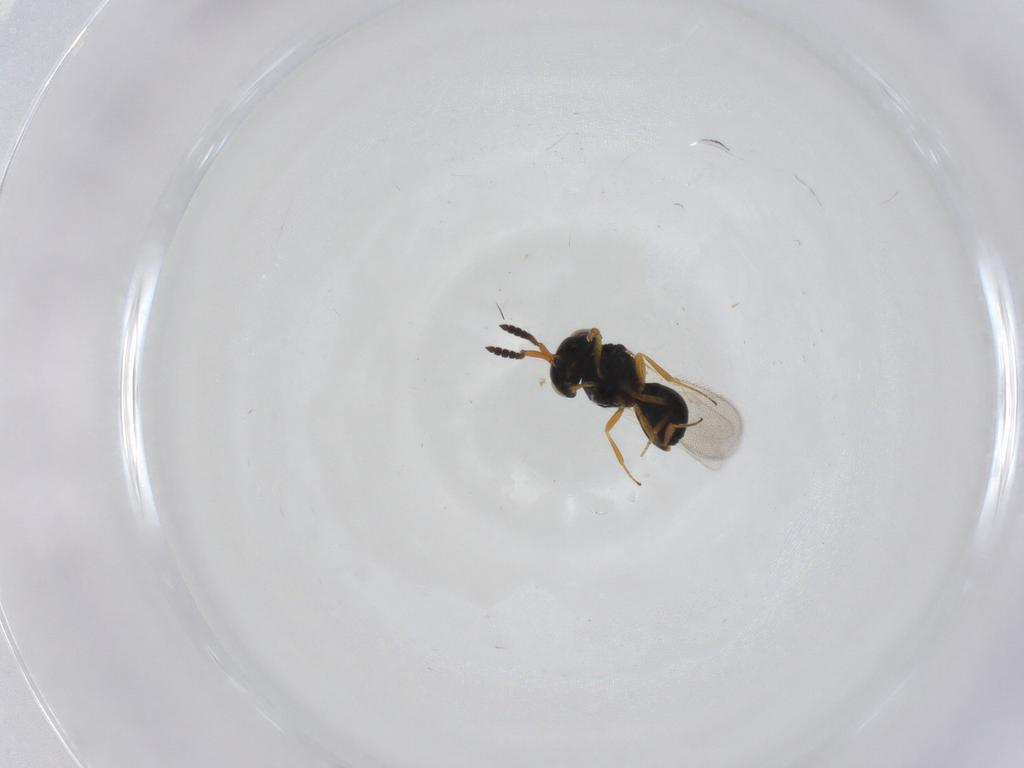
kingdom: Animalia
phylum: Arthropoda
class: Insecta
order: Hymenoptera
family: Scelionidae
